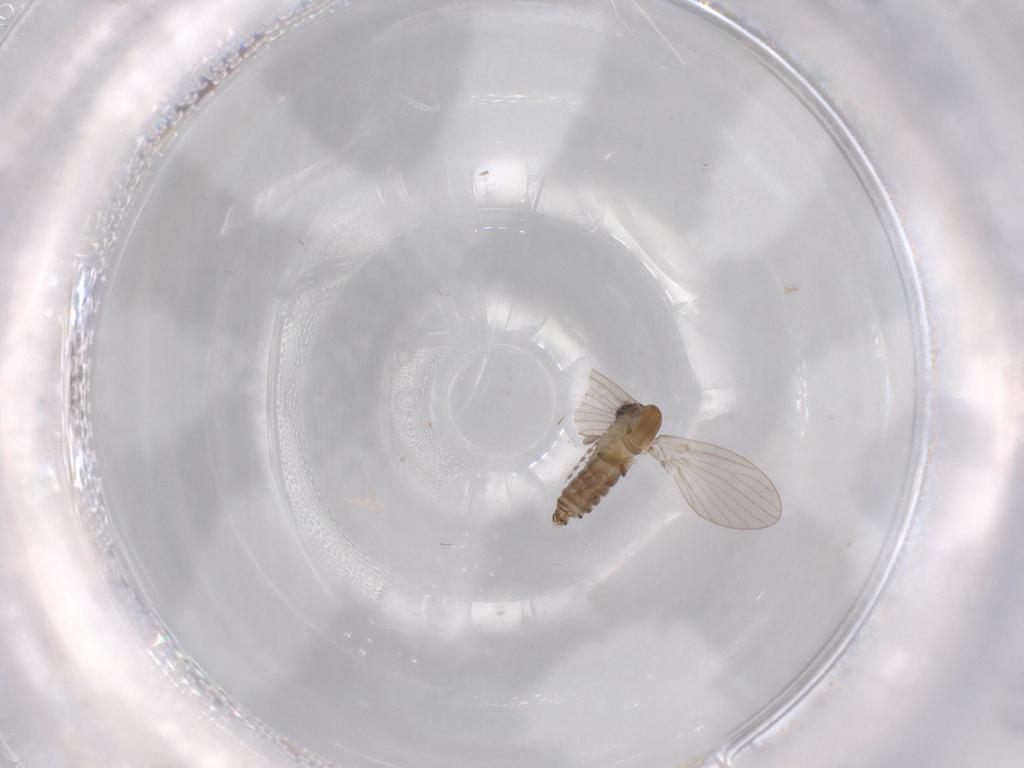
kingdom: Animalia
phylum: Arthropoda
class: Insecta
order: Diptera
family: Psychodidae
